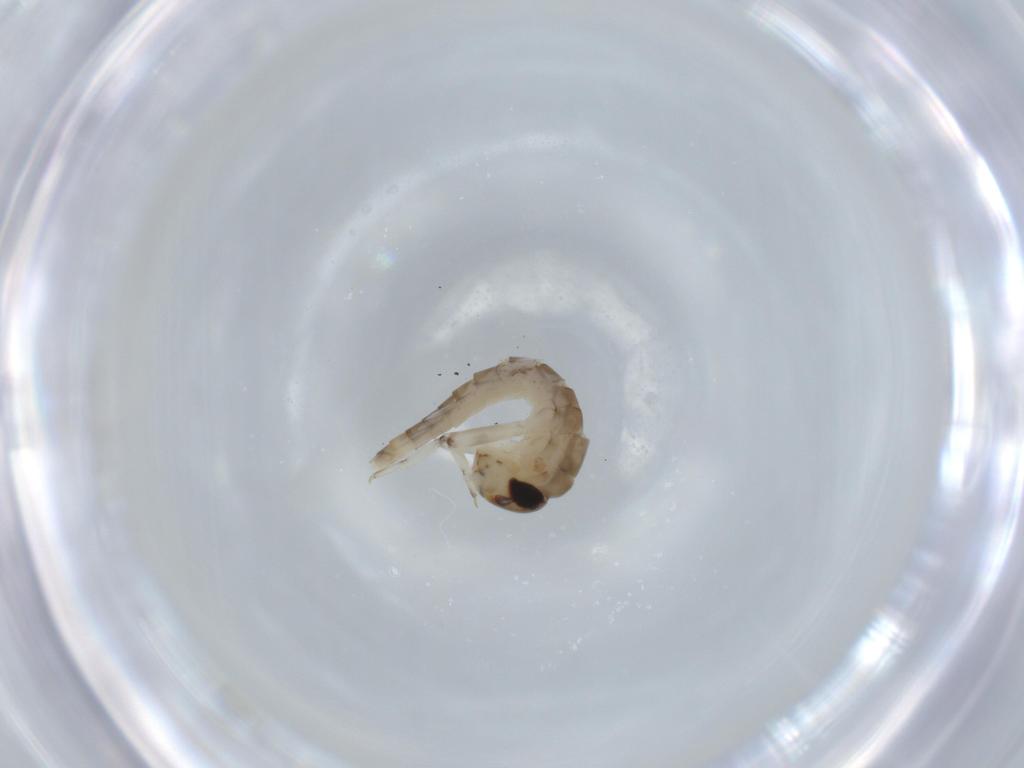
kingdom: Animalia
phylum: Arthropoda
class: Insecta
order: Ephemeroptera
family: Baetidae
